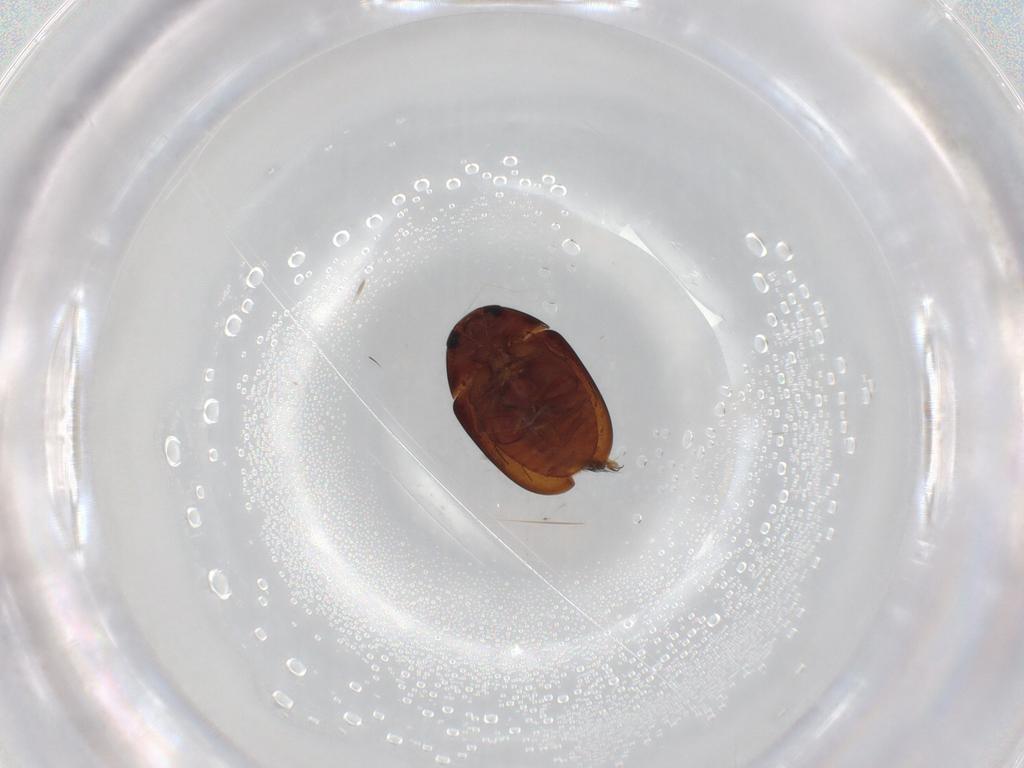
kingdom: Animalia
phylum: Arthropoda
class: Insecta
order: Coleoptera
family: Phalacridae
